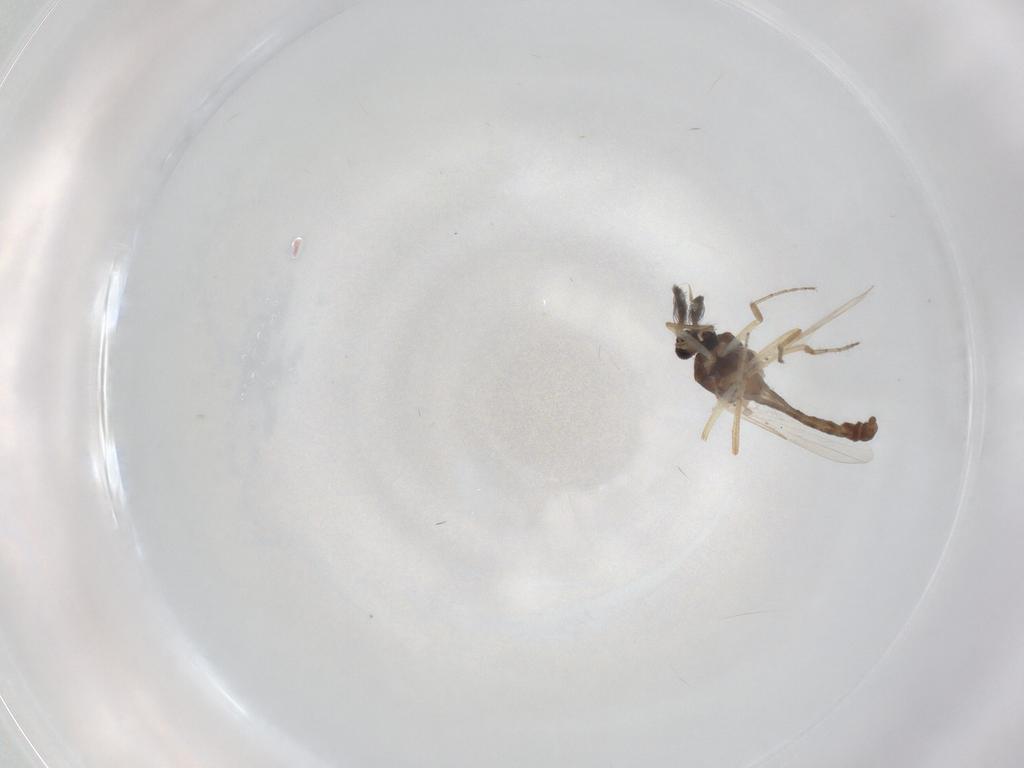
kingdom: Animalia
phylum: Arthropoda
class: Insecta
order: Diptera
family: Ceratopogonidae
